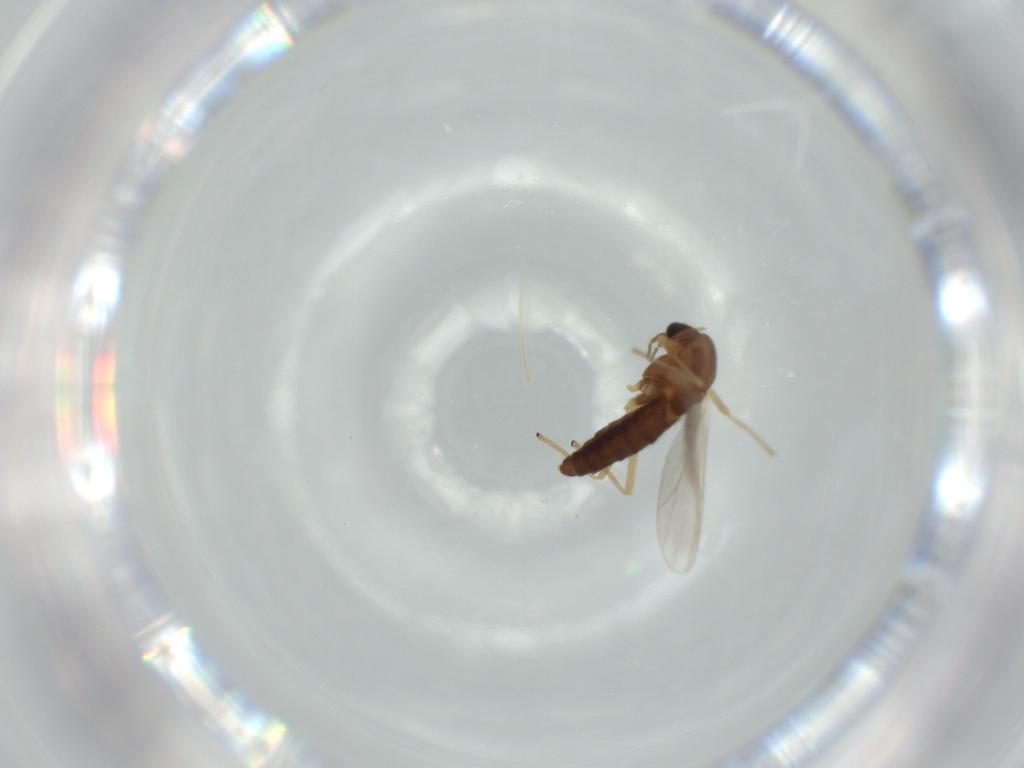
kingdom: Animalia
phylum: Arthropoda
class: Insecta
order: Diptera
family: Chironomidae
